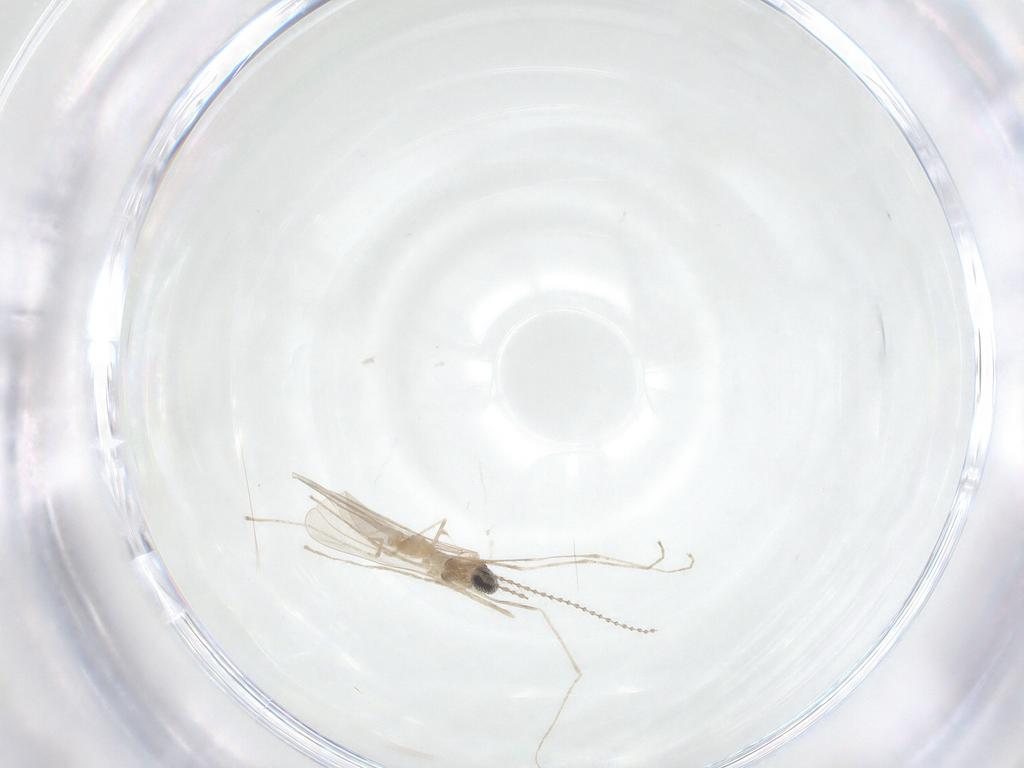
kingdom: Animalia
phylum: Arthropoda
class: Insecta
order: Diptera
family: Cecidomyiidae
